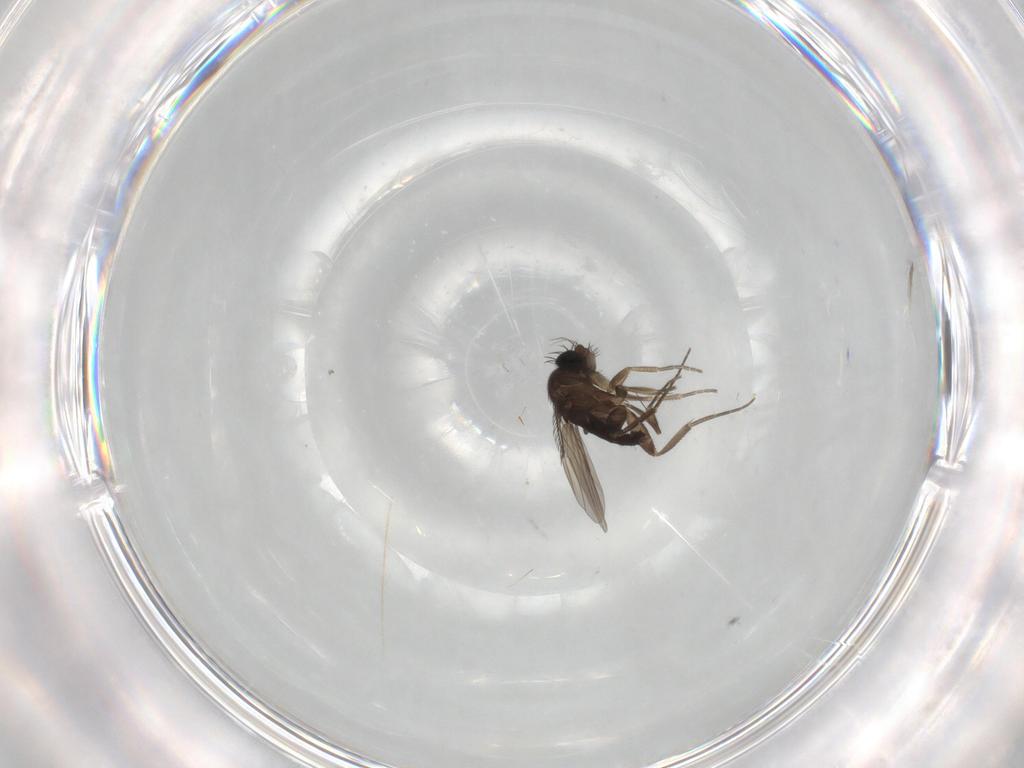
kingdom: Animalia
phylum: Arthropoda
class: Insecta
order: Diptera
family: Phoridae
